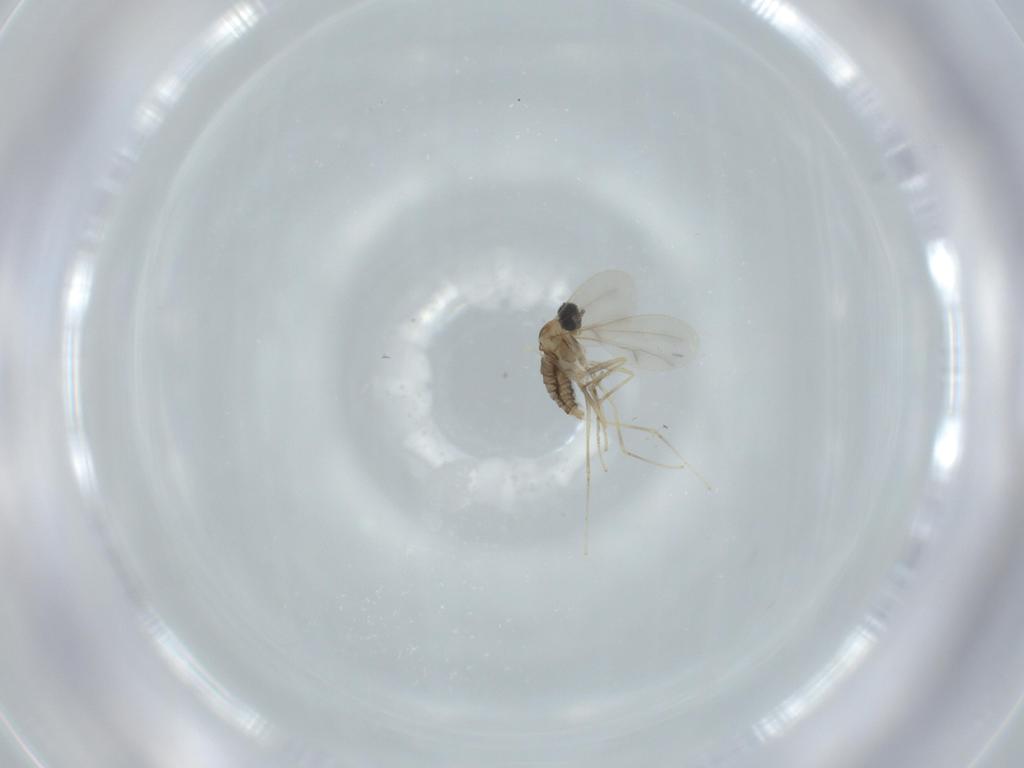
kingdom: Animalia
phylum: Arthropoda
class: Insecta
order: Diptera
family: Cecidomyiidae
